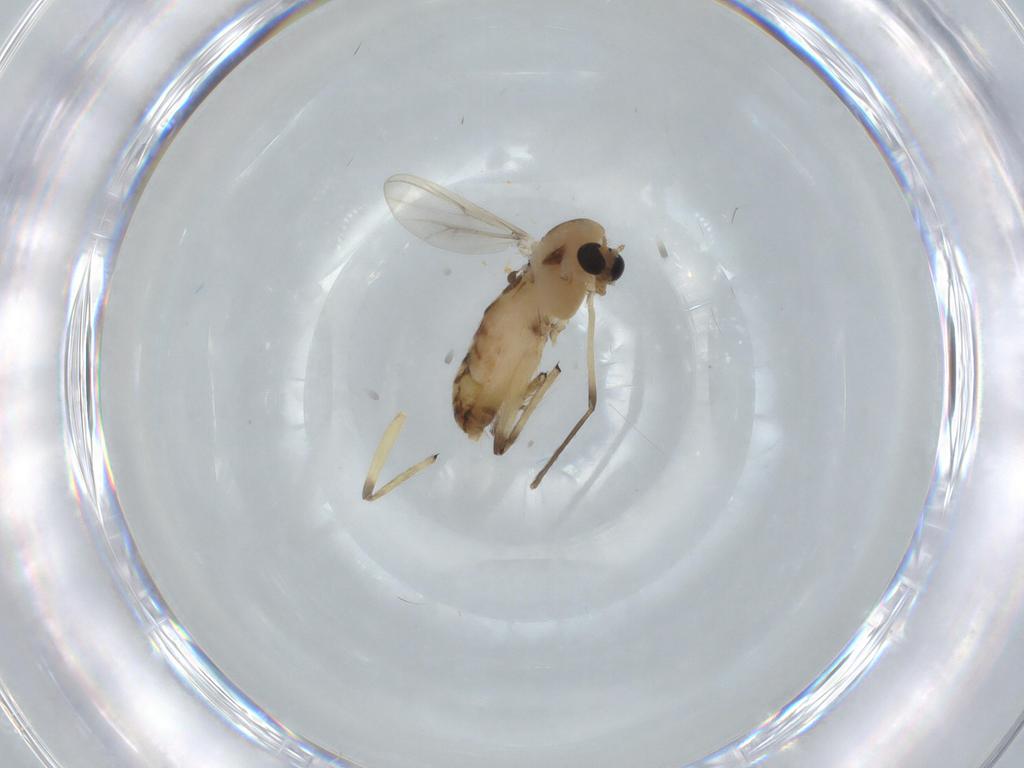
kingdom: Animalia
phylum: Arthropoda
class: Insecta
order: Diptera
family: Chironomidae
